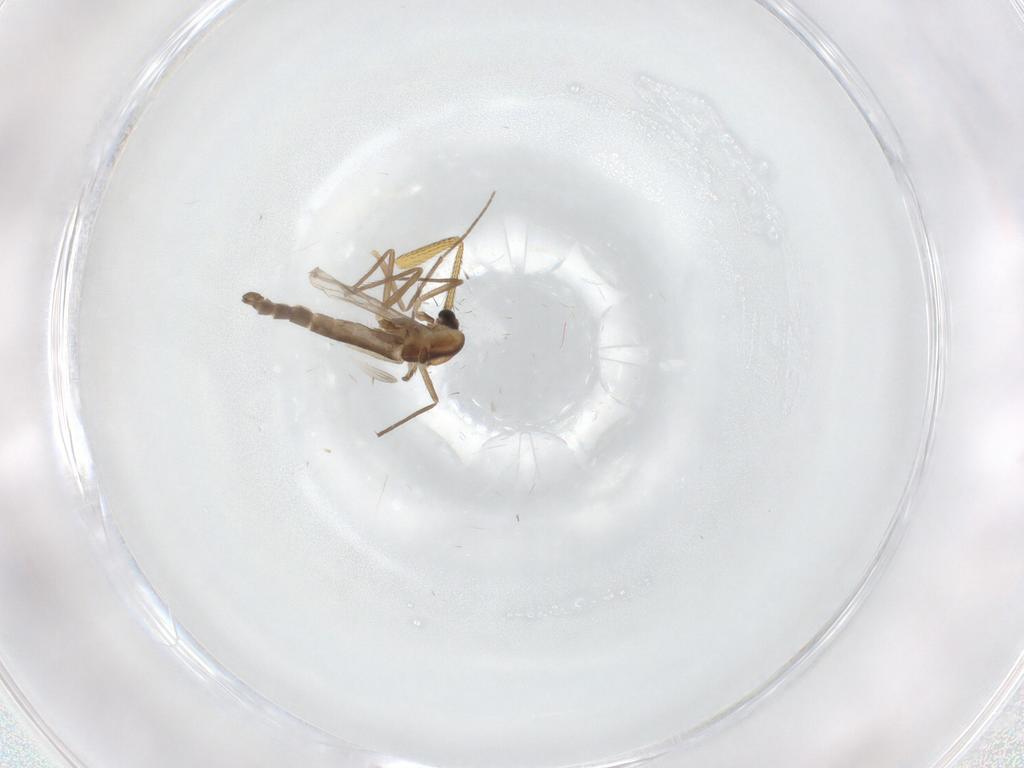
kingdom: Animalia
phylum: Arthropoda
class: Insecta
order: Diptera
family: Chironomidae
